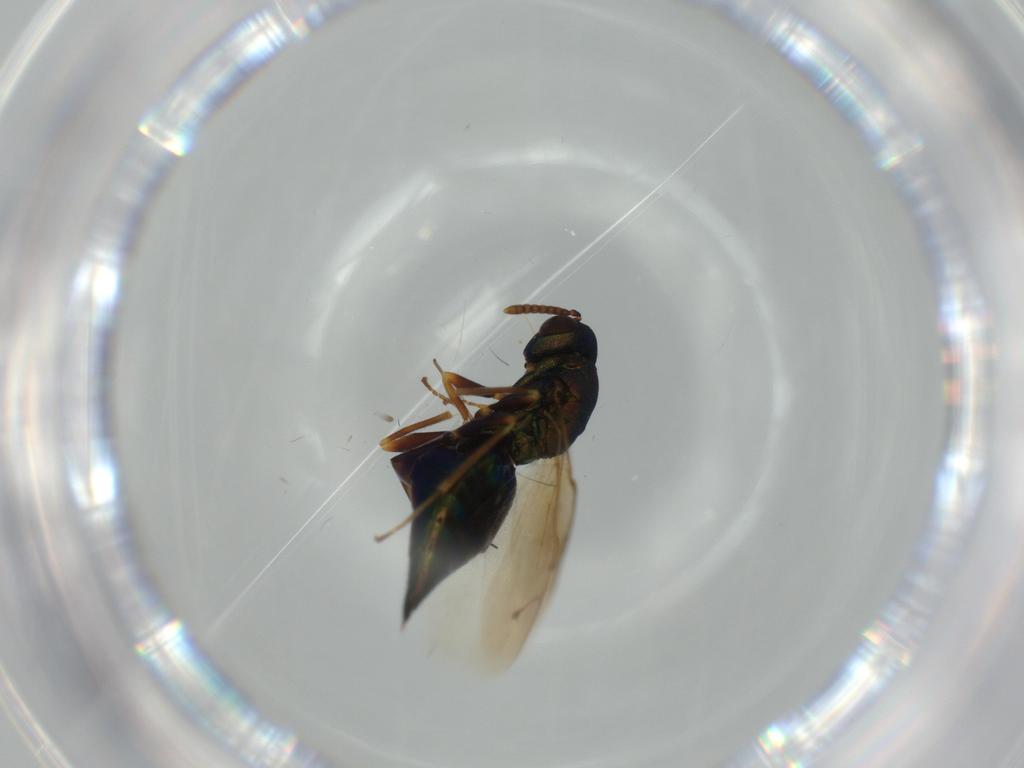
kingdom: Animalia
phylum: Arthropoda
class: Insecta
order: Hymenoptera
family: Pteromalidae
